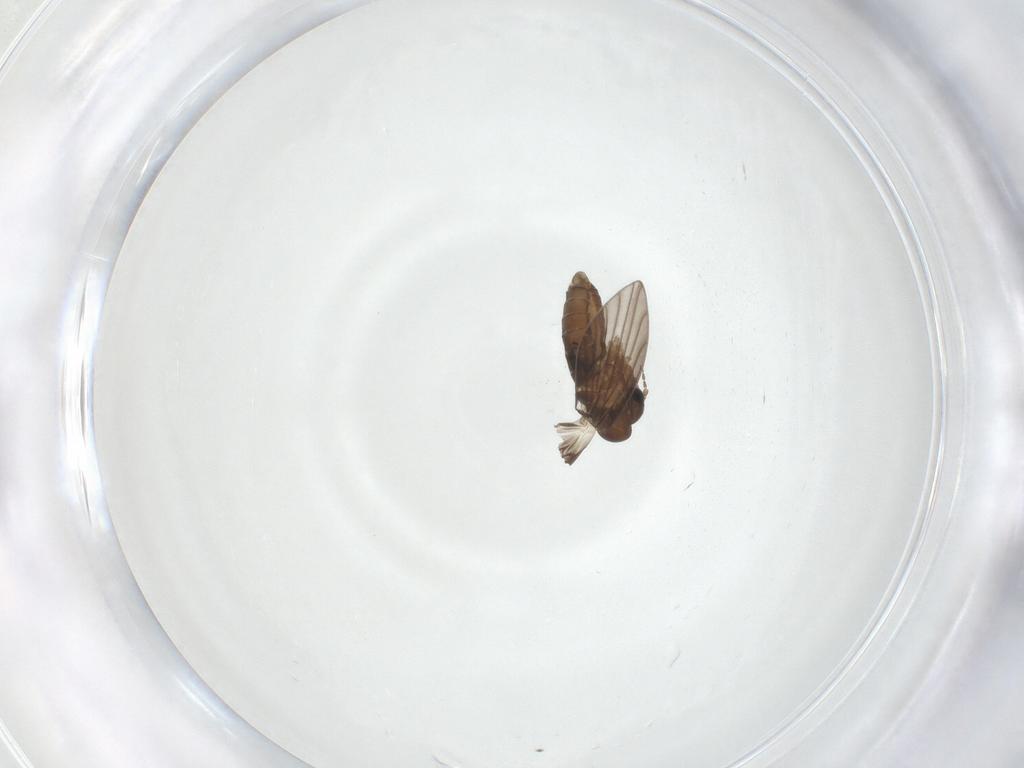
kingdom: Animalia
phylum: Arthropoda
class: Insecta
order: Diptera
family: Psychodidae
